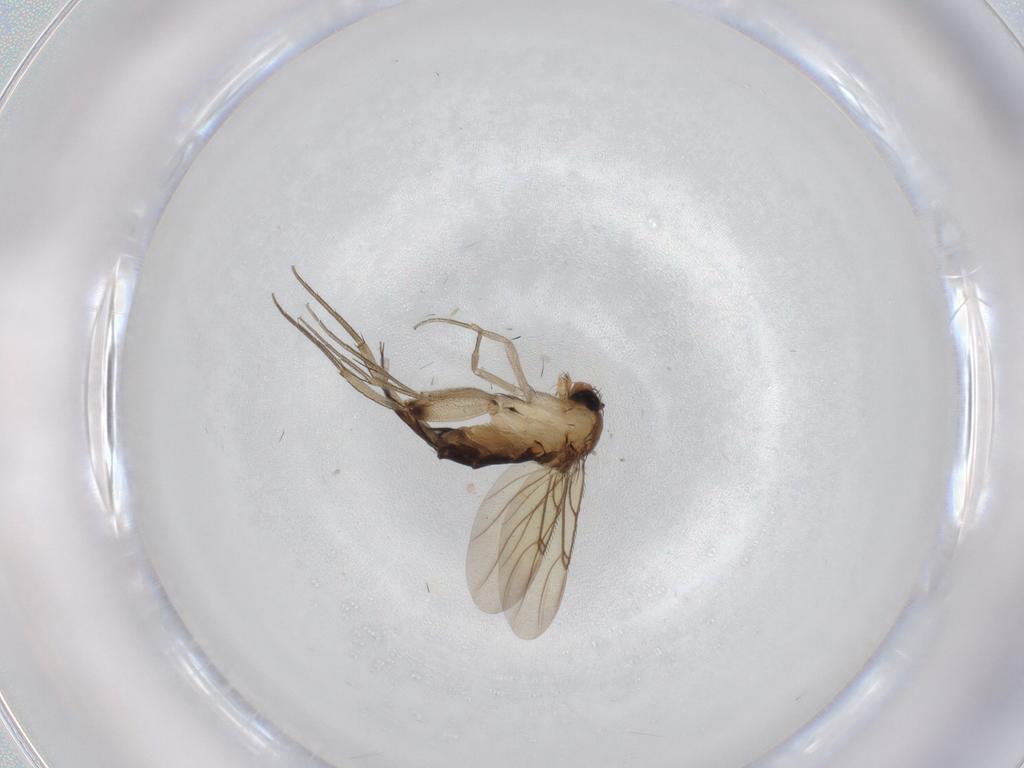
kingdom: Animalia
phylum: Arthropoda
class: Insecta
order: Diptera
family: Phoridae
